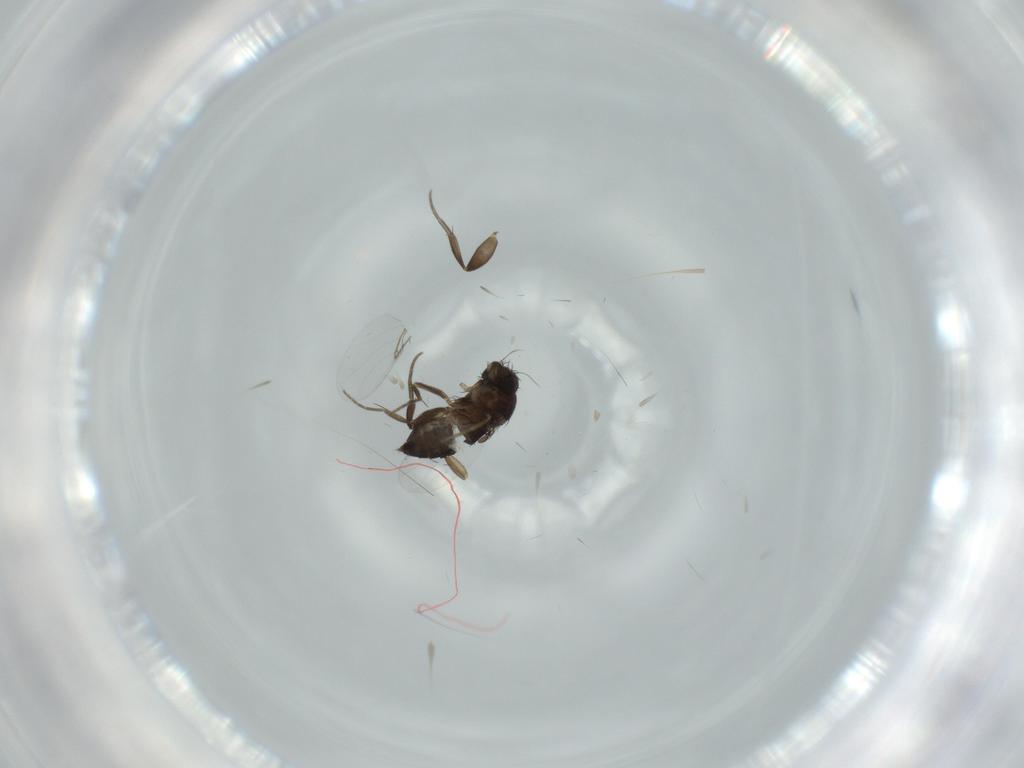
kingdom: Animalia
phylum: Arthropoda
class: Insecta
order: Diptera
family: Phoridae
